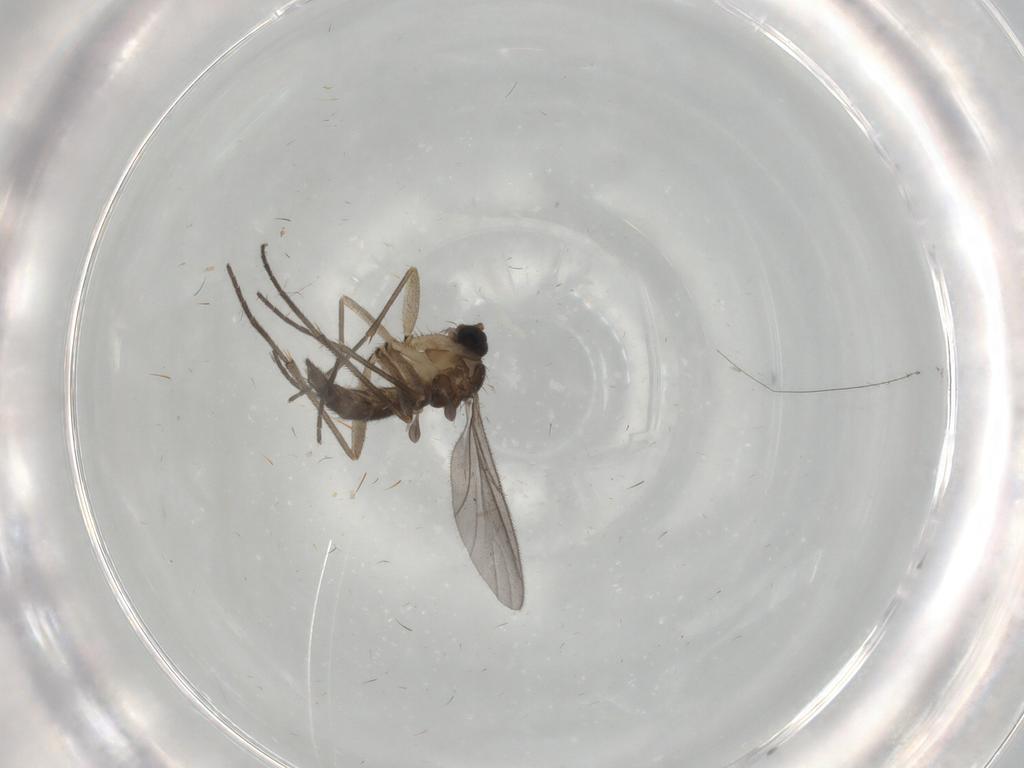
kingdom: Animalia
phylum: Arthropoda
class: Insecta
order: Diptera
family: Sciaridae
